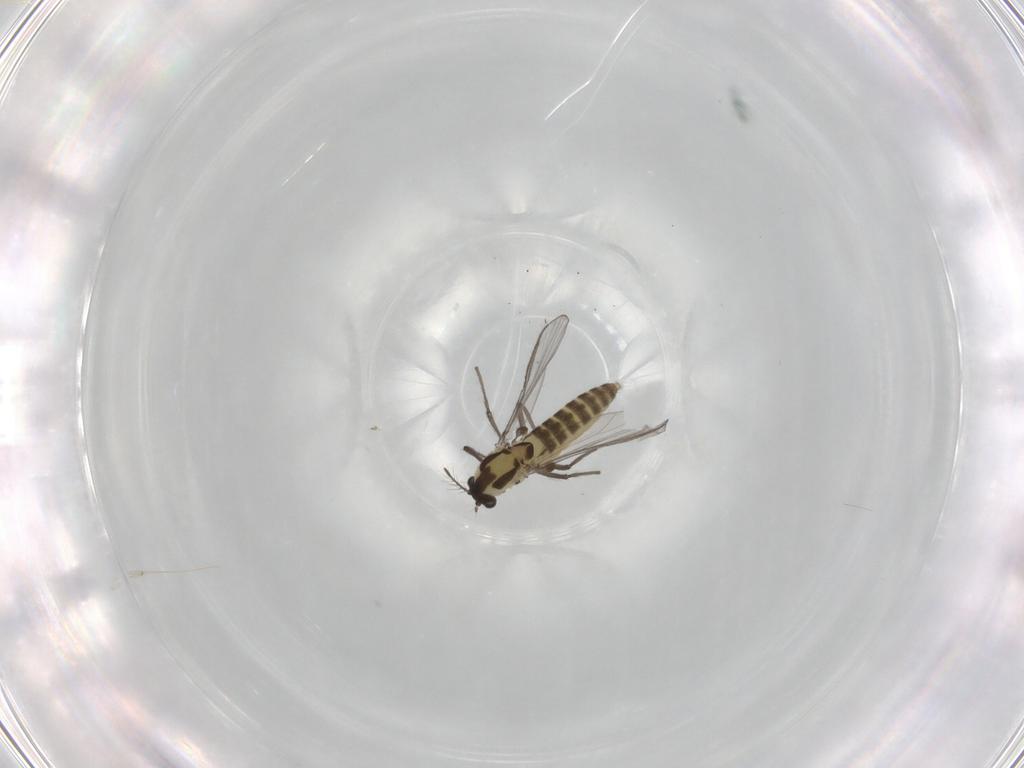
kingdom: Animalia
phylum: Arthropoda
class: Insecta
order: Diptera
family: Chironomidae
